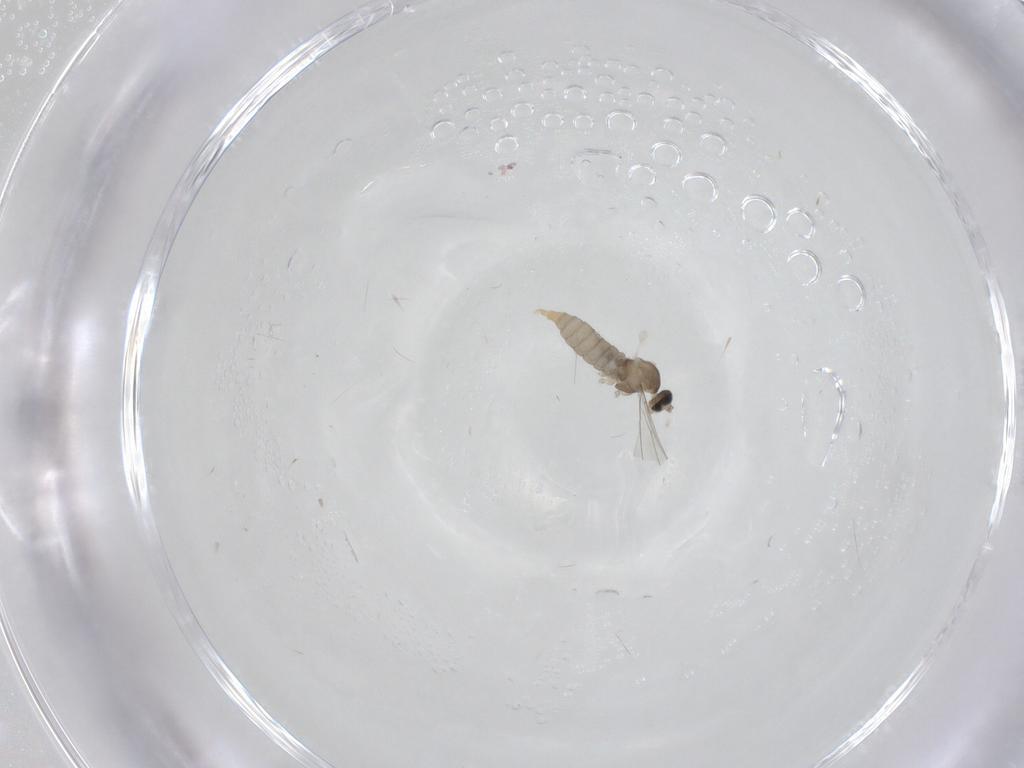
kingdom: Animalia
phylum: Arthropoda
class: Insecta
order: Diptera
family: Cecidomyiidae
